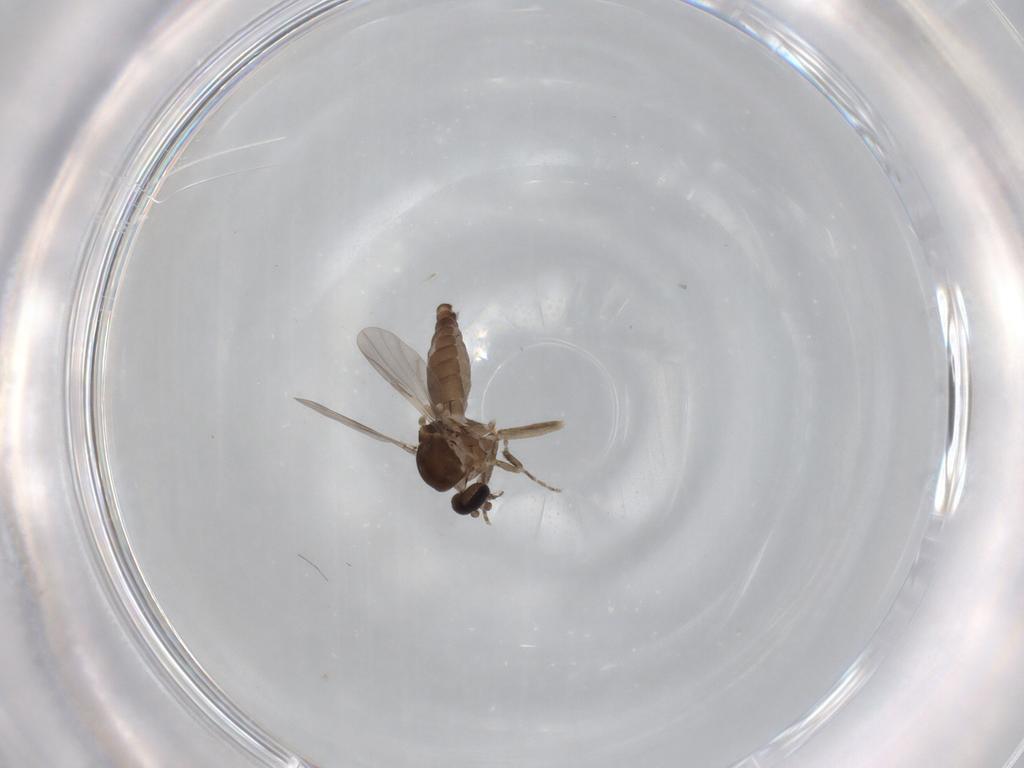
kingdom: Animalia
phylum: Arthropoda
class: Insecta
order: Diptera
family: Ceratopogonidae
